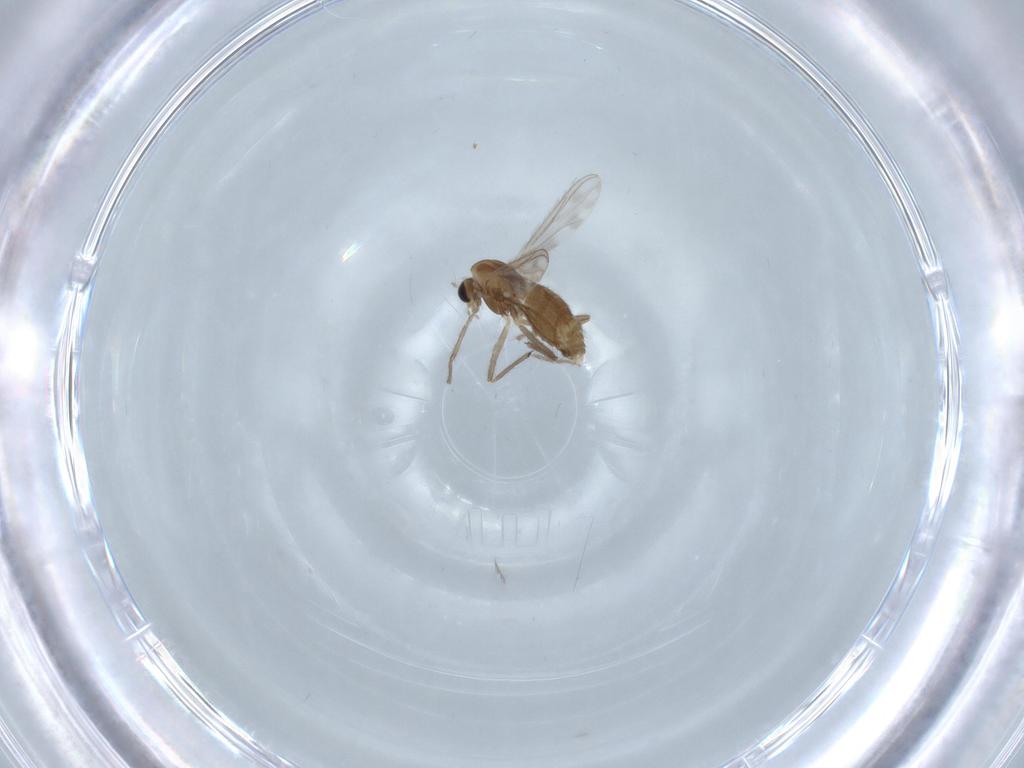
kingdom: Animalia
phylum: Arthropoda
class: Insecta
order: Diptera
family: Chironomidae
